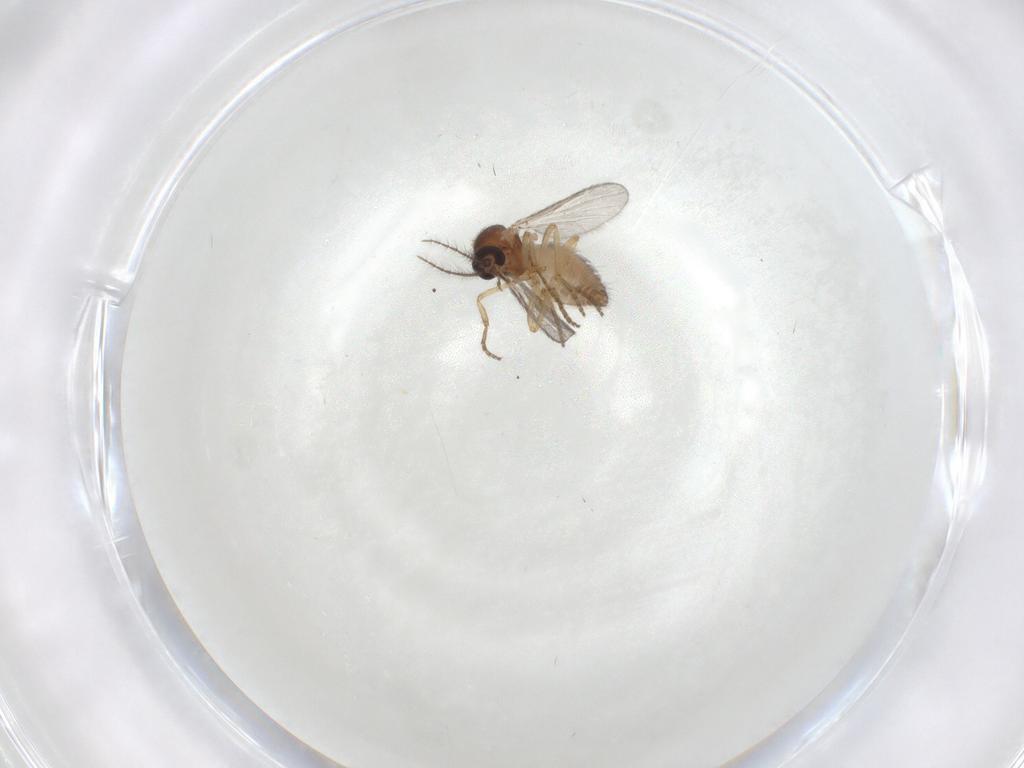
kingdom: Animalia
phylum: Arthropoda
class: Insecta
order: Diptera
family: Ceratopogonidae
